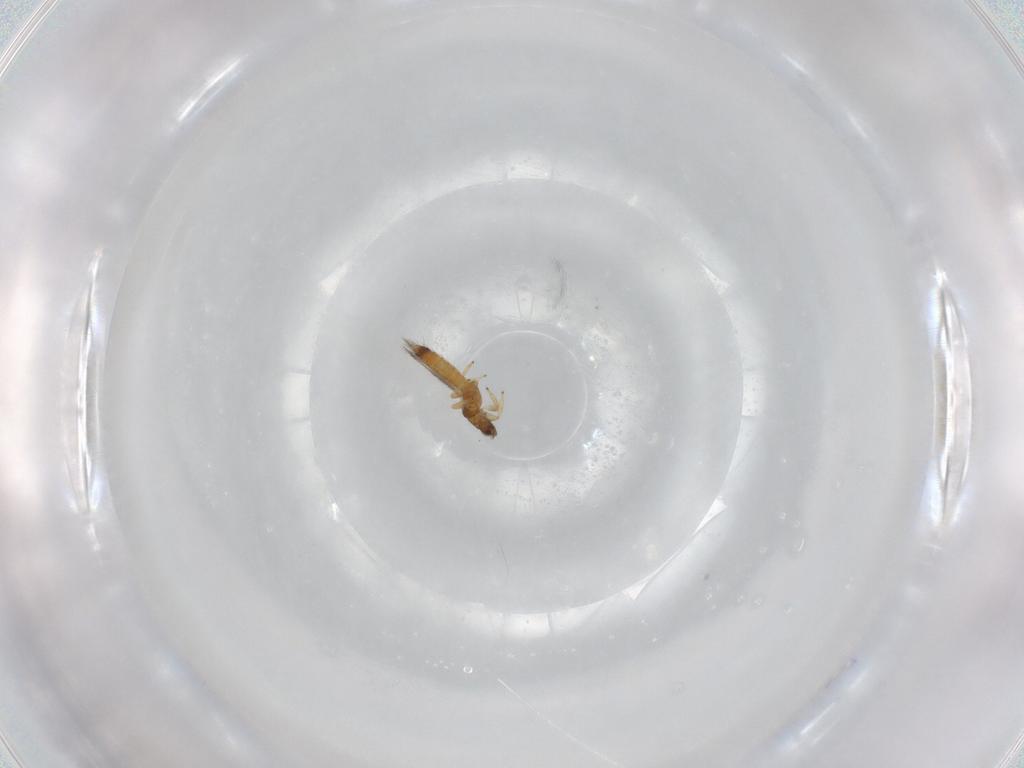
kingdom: Animalia
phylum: Arthropoda
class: Insecta
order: Thysanoptera
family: Thripidae
